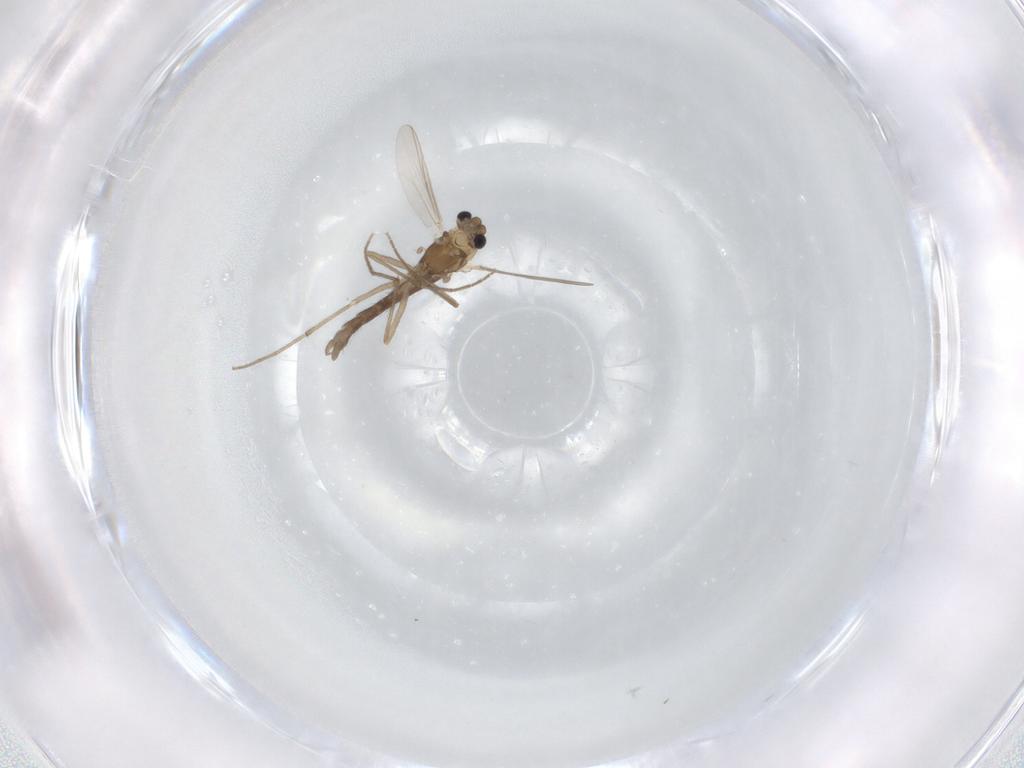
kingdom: Animalia
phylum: Arthropoda
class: Insecta
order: Diptera
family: Chironomidae
